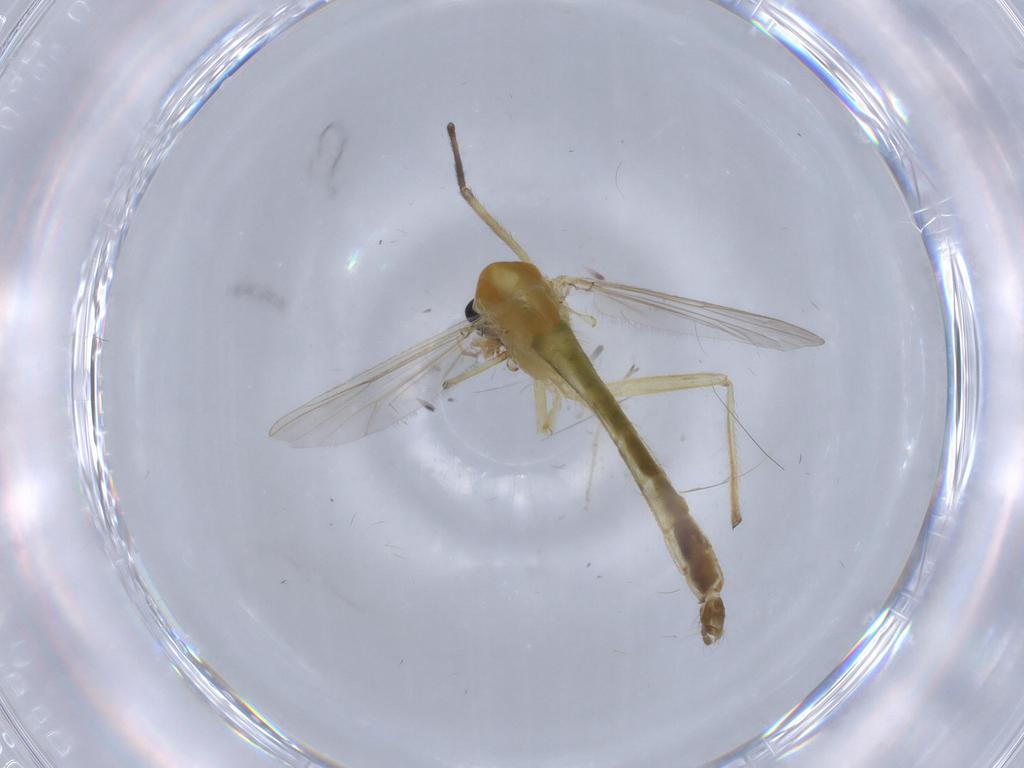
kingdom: Animalia
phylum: Arthropoda
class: Insecta
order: Diptera
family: Chironomidae
